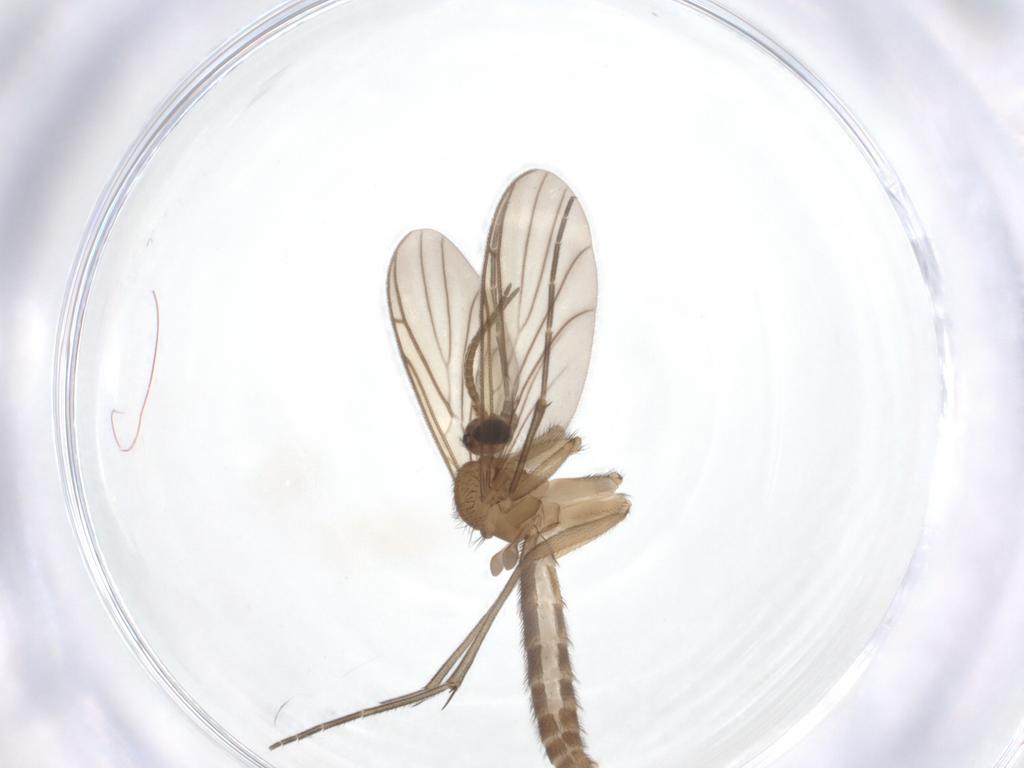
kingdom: Animalia
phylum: Arthropoda
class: Insecta
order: Diptera
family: Keroplatidae
